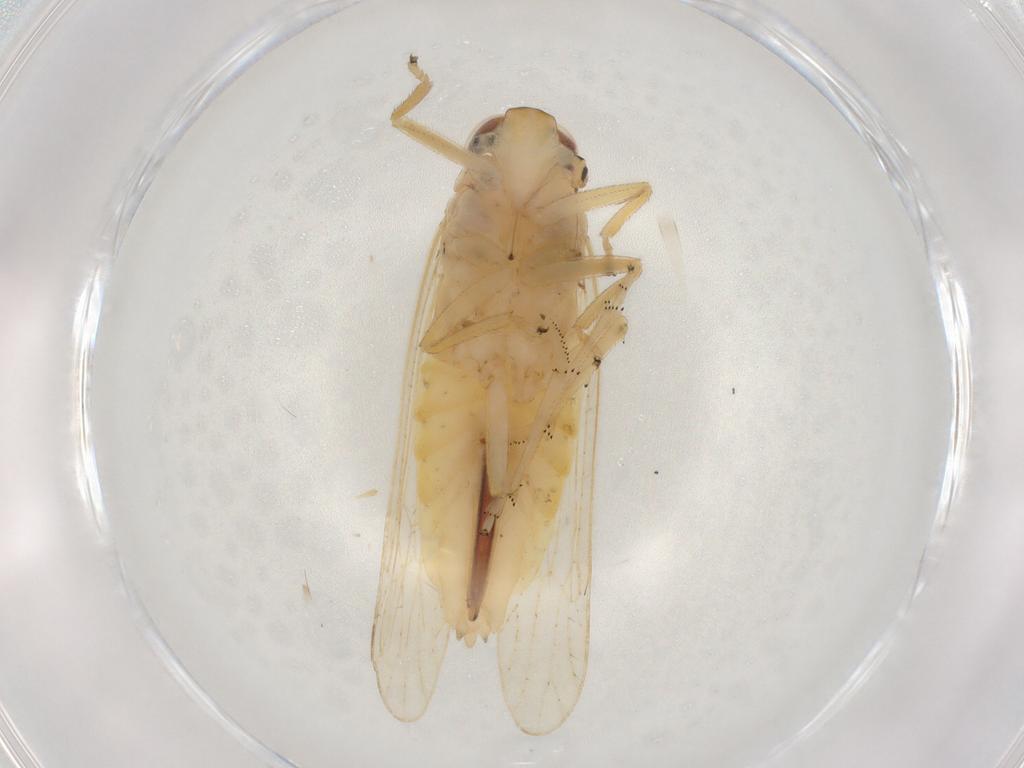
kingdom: Animalia
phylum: Arthropoda
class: Insecta
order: Hemiptera
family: Delphacidae
